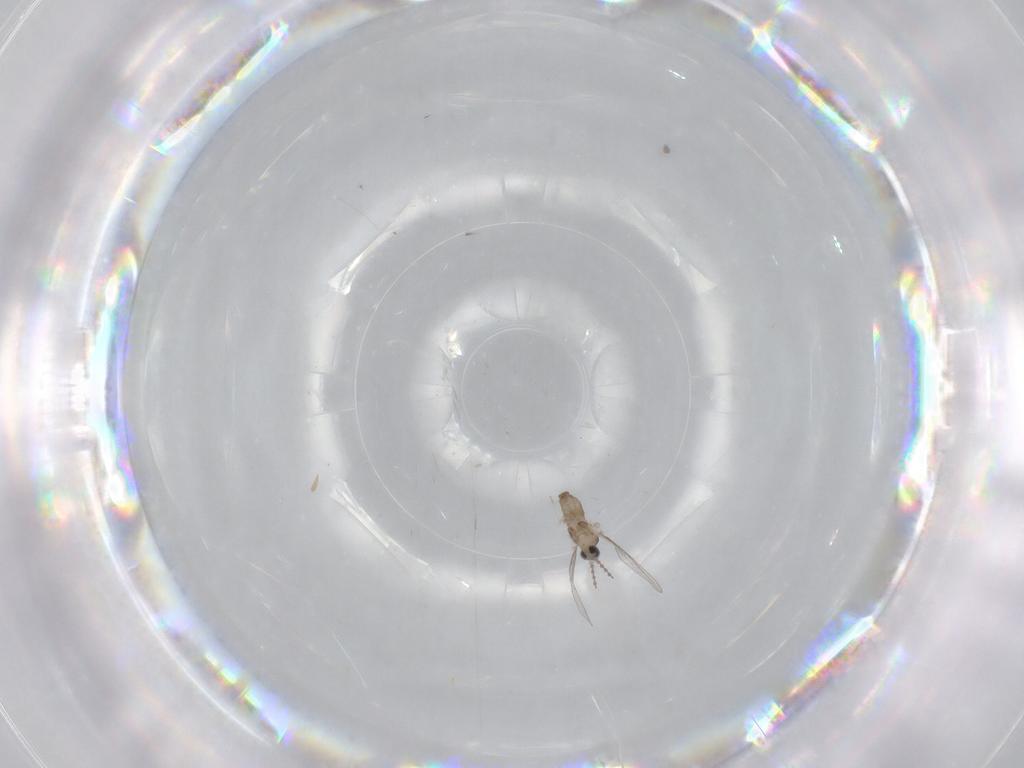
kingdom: Animalia
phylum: Arthropoda
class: Insecta
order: Diptera
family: Cecidomyiidae
